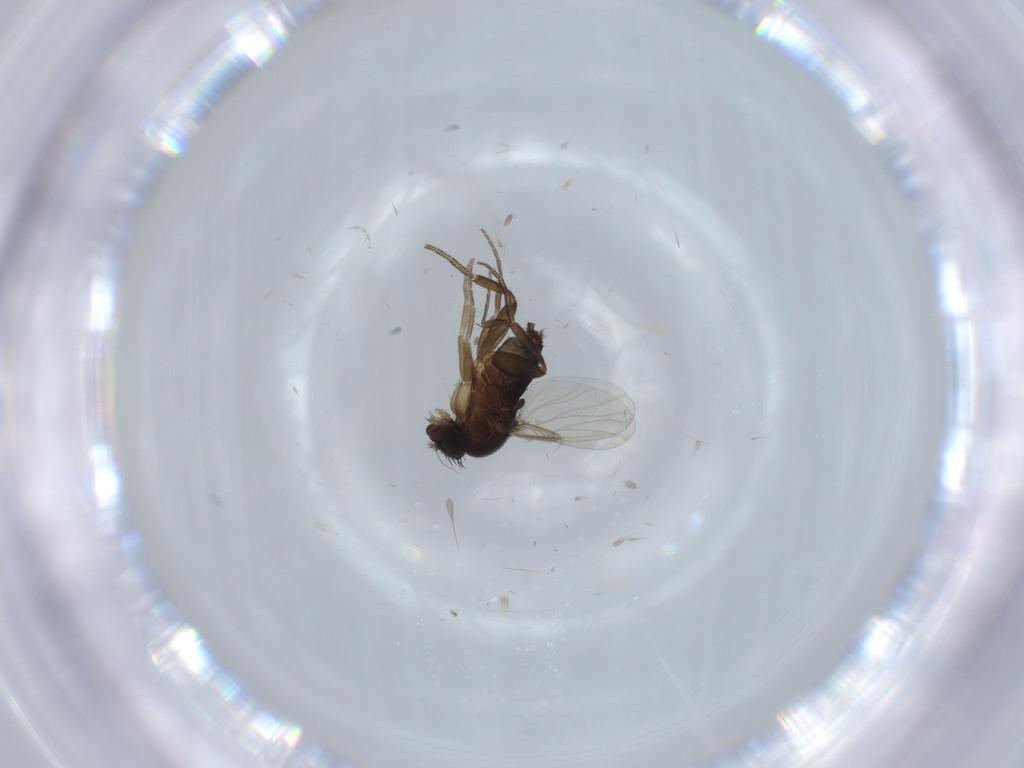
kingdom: Animalia
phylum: Arthropoda
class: Insecta
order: Diptera
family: Phoridae
